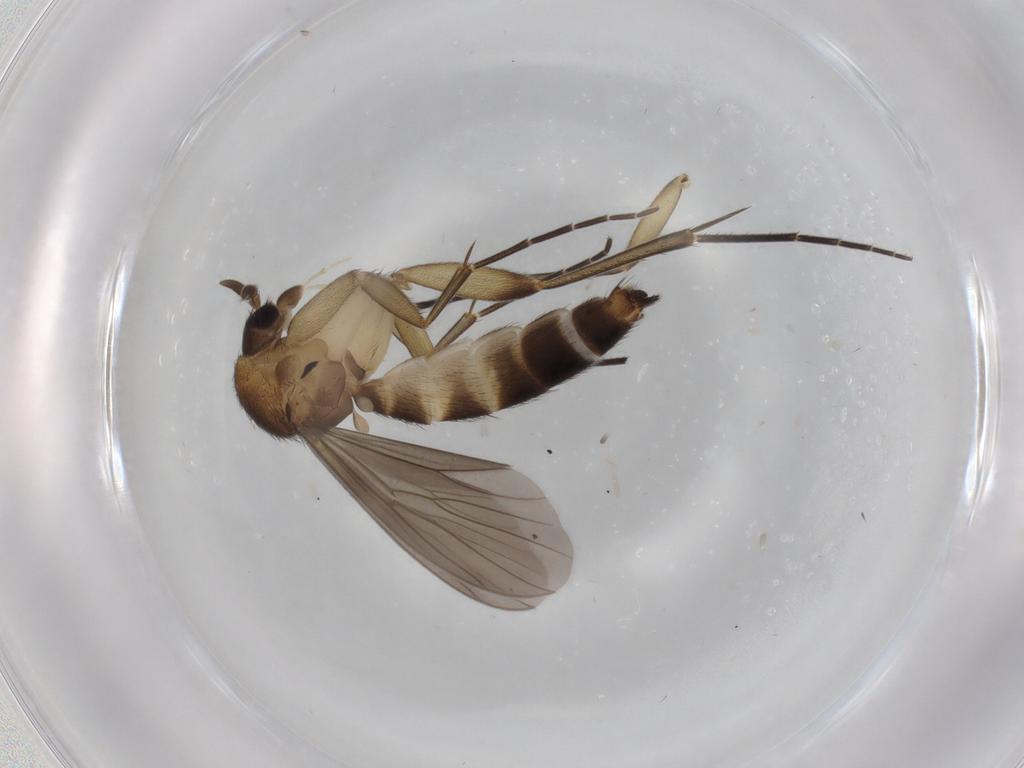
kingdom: Animalia
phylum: Arthropoda
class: Insecta
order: Diptera
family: Mycetophilidae
